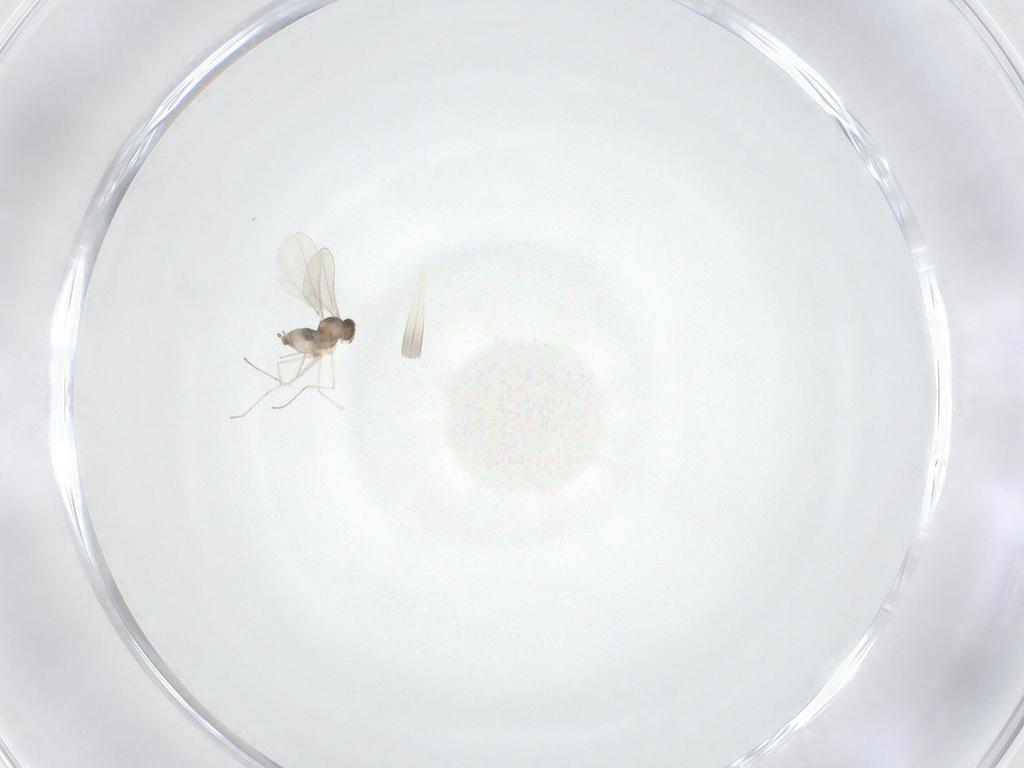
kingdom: Animalia
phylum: Arthropoda
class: Insecta
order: Diptera
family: Cecidomyiidae
